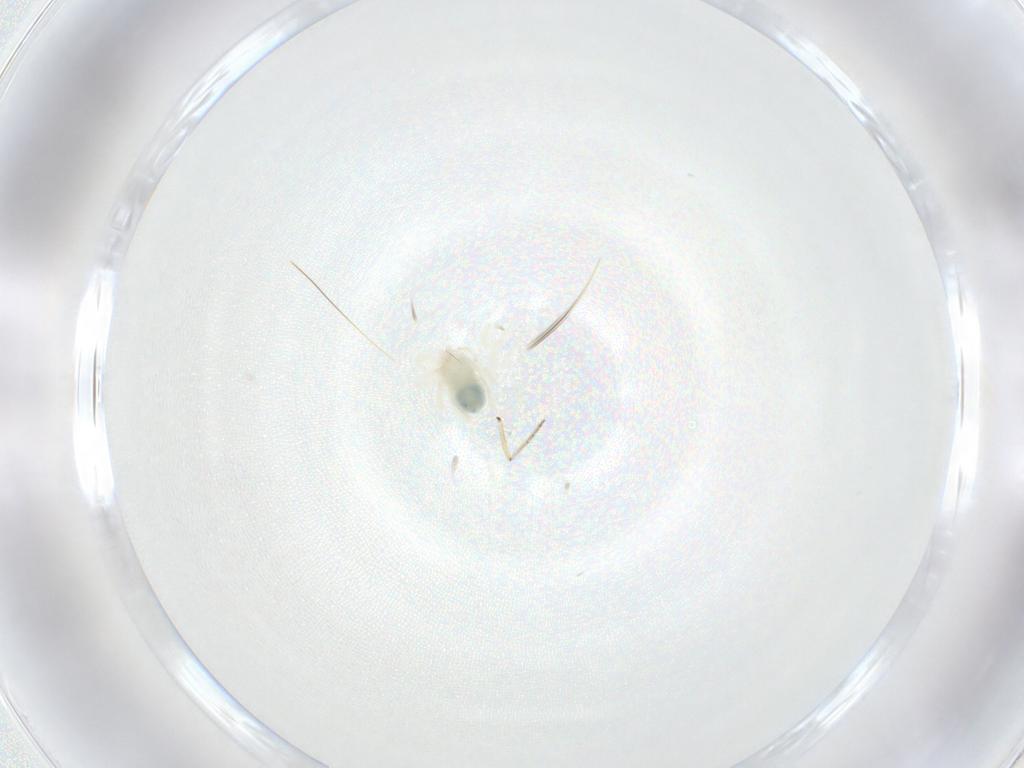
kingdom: Animalia
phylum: Arthropoda
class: Insecta
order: Diptera
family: Ceratopogonidae
